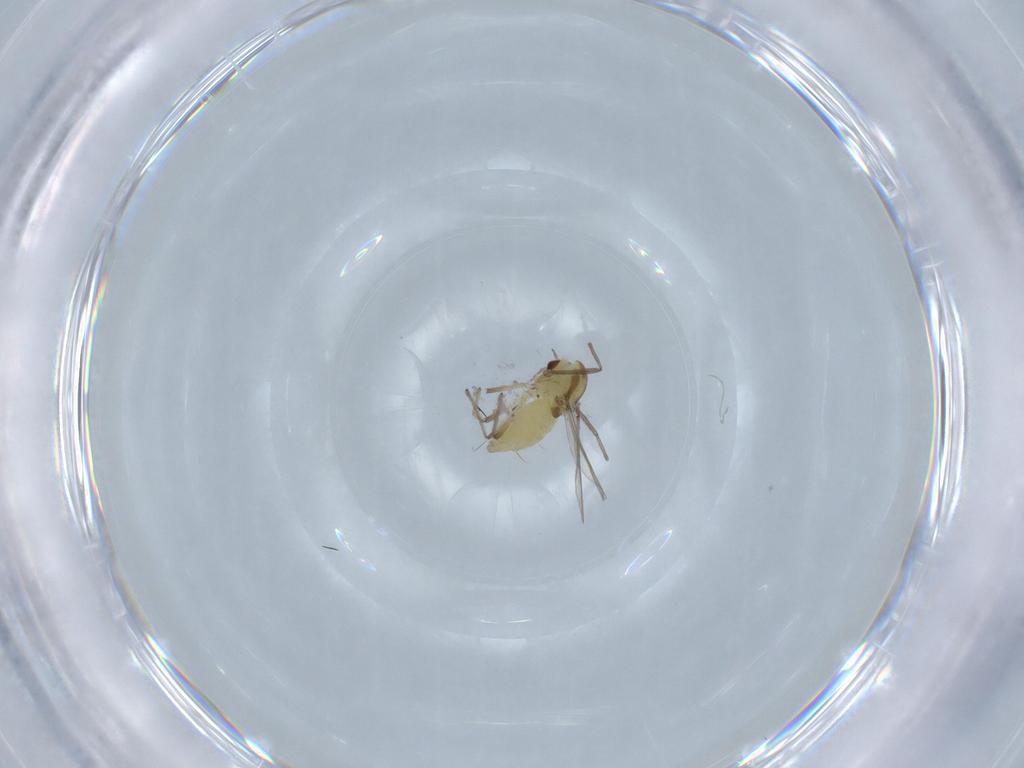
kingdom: Animalia
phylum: Arthropoda
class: Insecta
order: Diptera
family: Chironomidae
